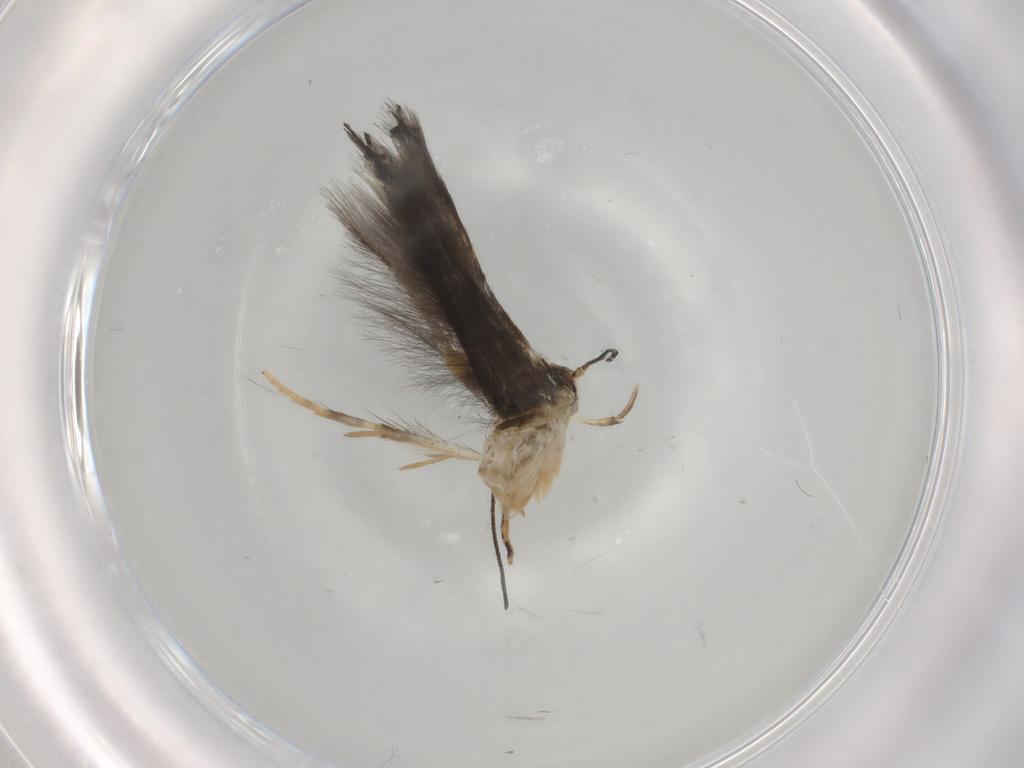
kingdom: Animalia
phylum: Arthropoda
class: Insecta
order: Lepidoptera
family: Elachistidae
